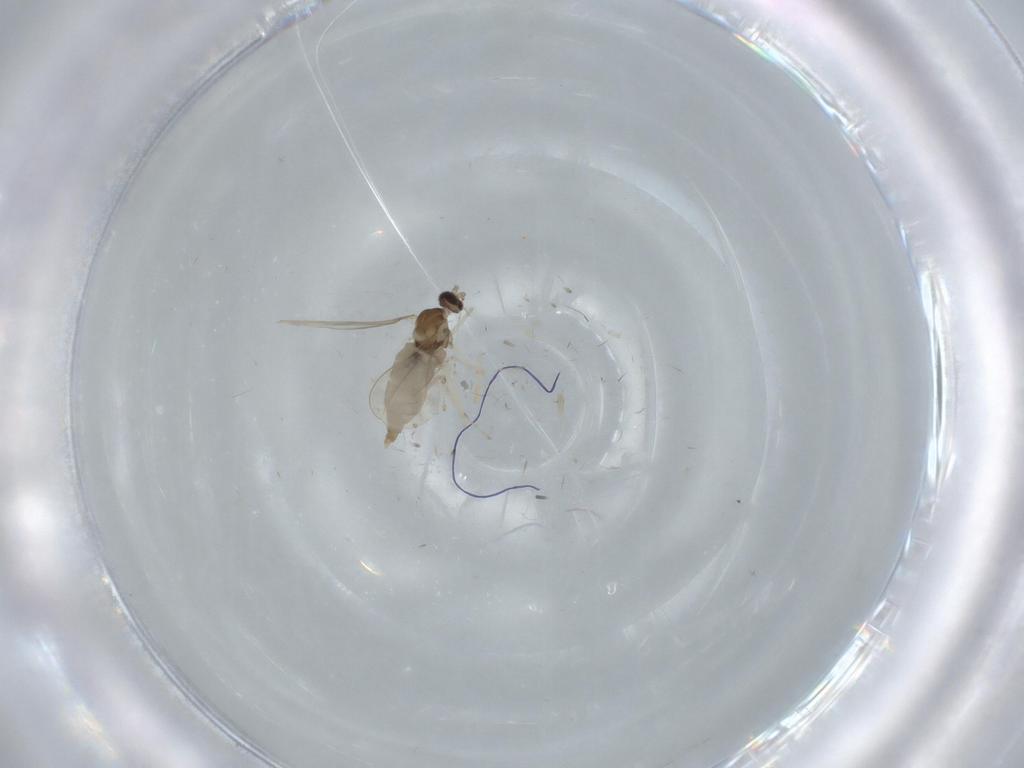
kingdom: Animalia
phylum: Arthropoda
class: Insecta
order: Diptera
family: Cecidomyiidae
